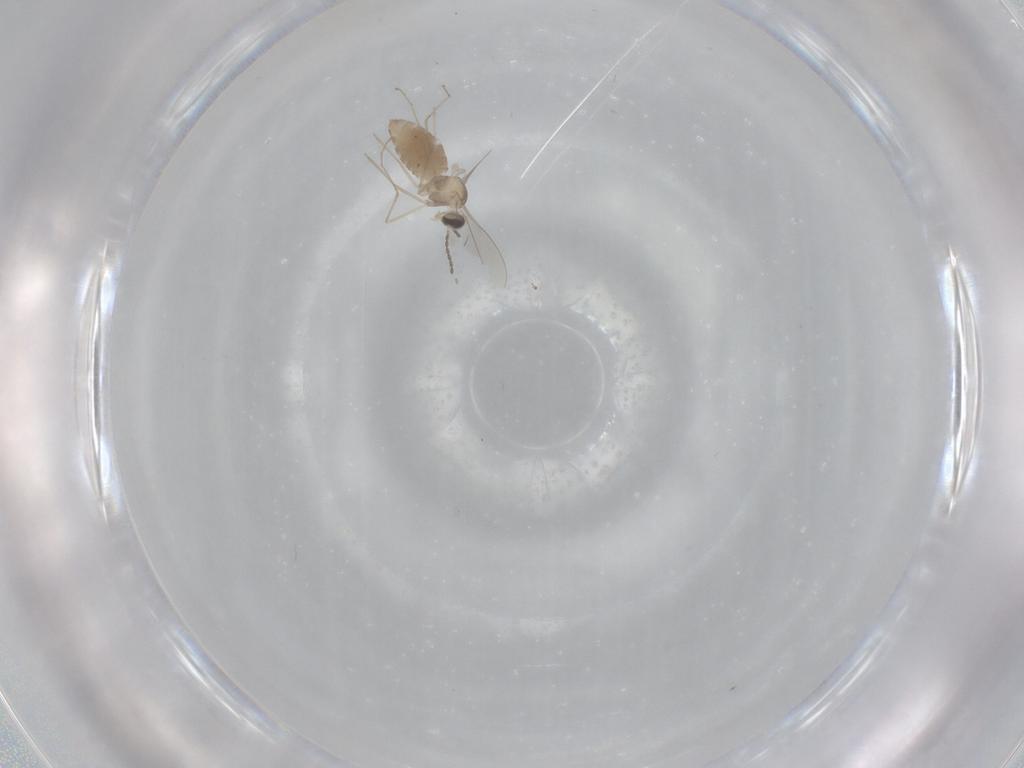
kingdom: Animalia
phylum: Arthropoda
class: Insecta
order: Diptera
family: Cecidomyiidae
